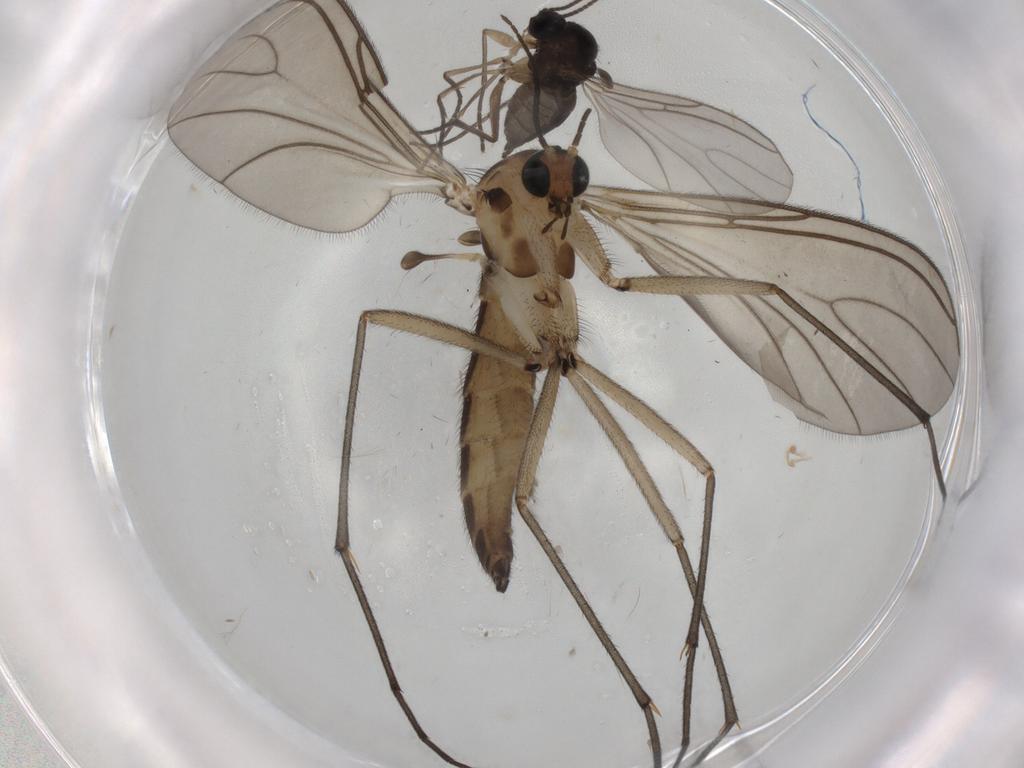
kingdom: Animalia
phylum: Arthropoda
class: Insecta
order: Diptera
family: Sciaridae
